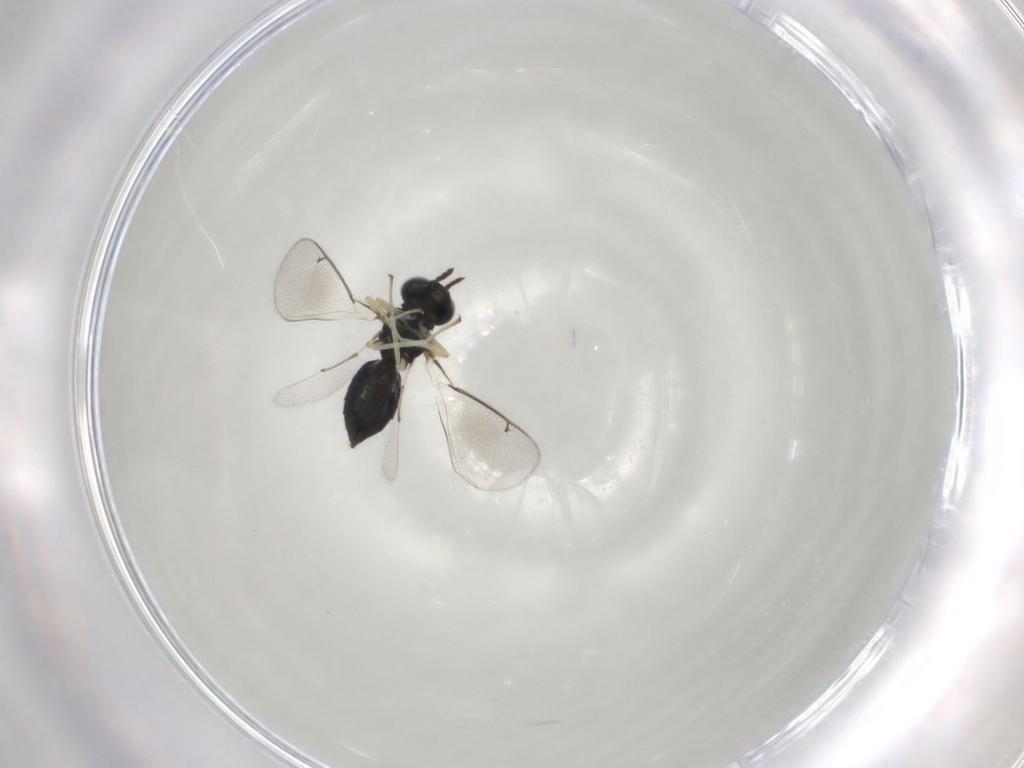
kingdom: Animalia
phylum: Arthropoda
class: Insecta
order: Hymenoptera
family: Eulophidae
